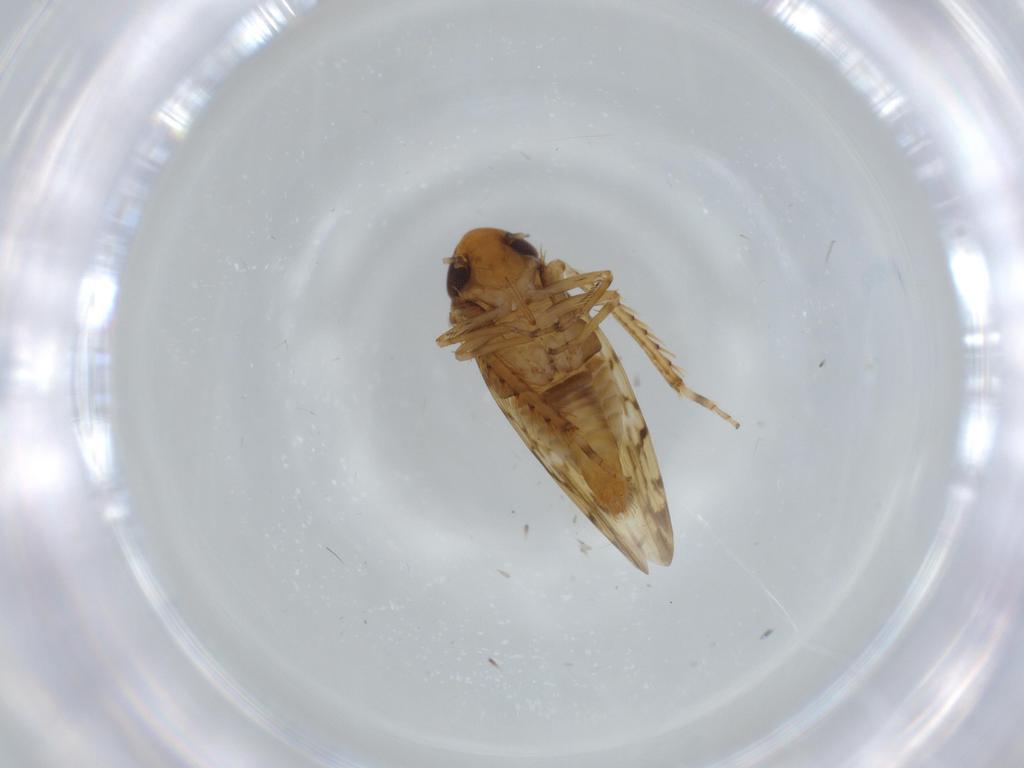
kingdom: Animalia
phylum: Arthropoda
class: Insecta
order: Hemiptera
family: Cicadellidae
